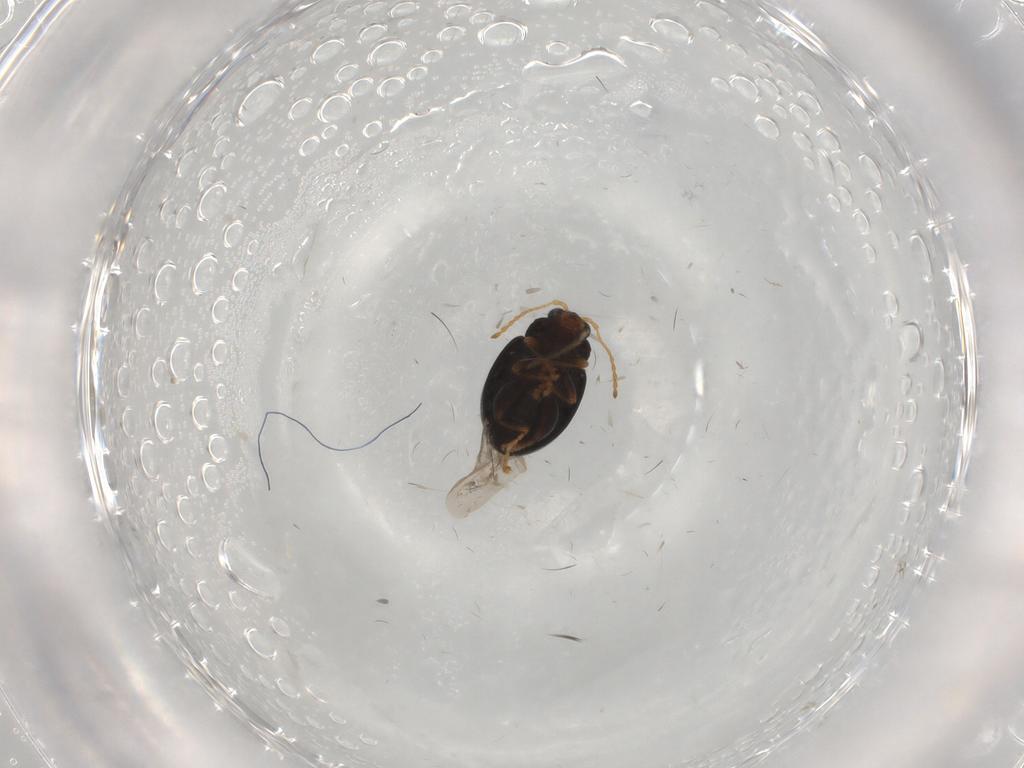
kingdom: Animalia
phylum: Arthropoda
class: Insecta
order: Coleoptera
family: Chrysomelidae
